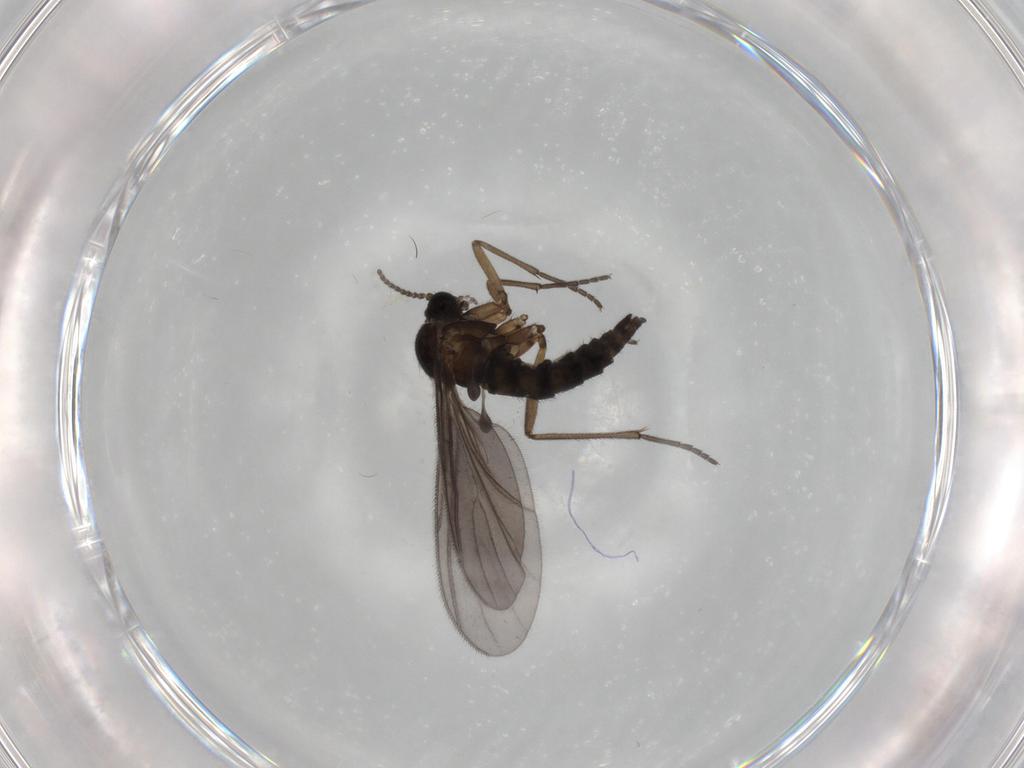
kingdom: Animalia
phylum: Arthropoda
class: Insecta
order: Diptera
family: Sciaridae
